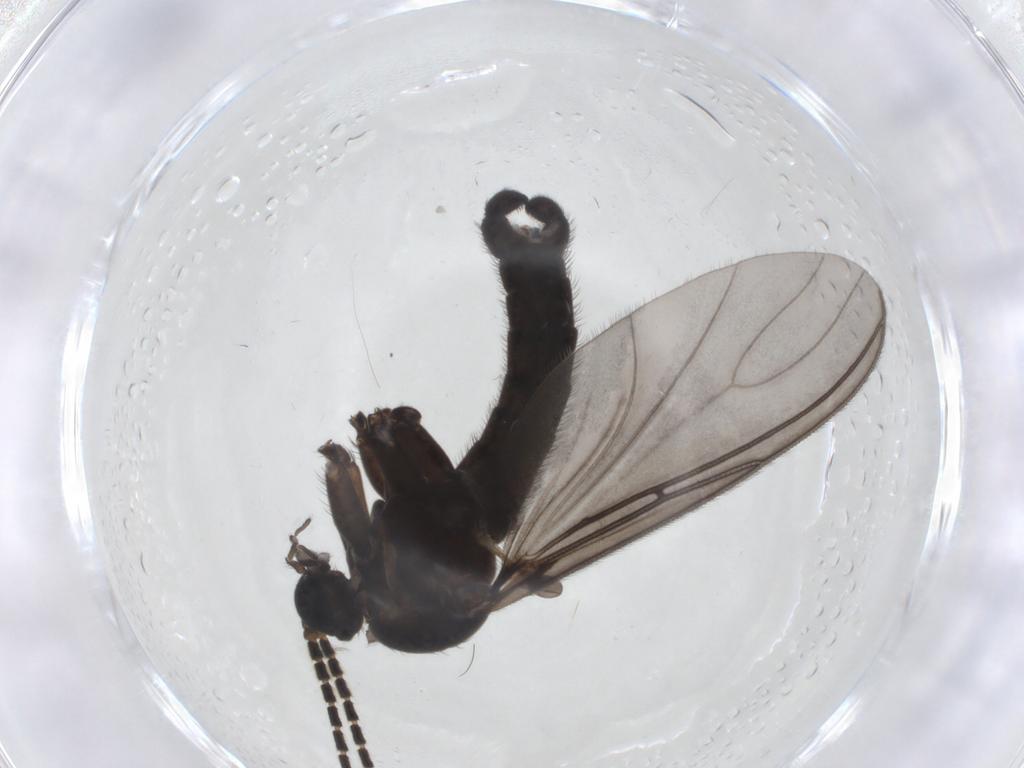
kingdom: Animalia
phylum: Arthropoda
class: Insecta
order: Diptera
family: Sciaridae
